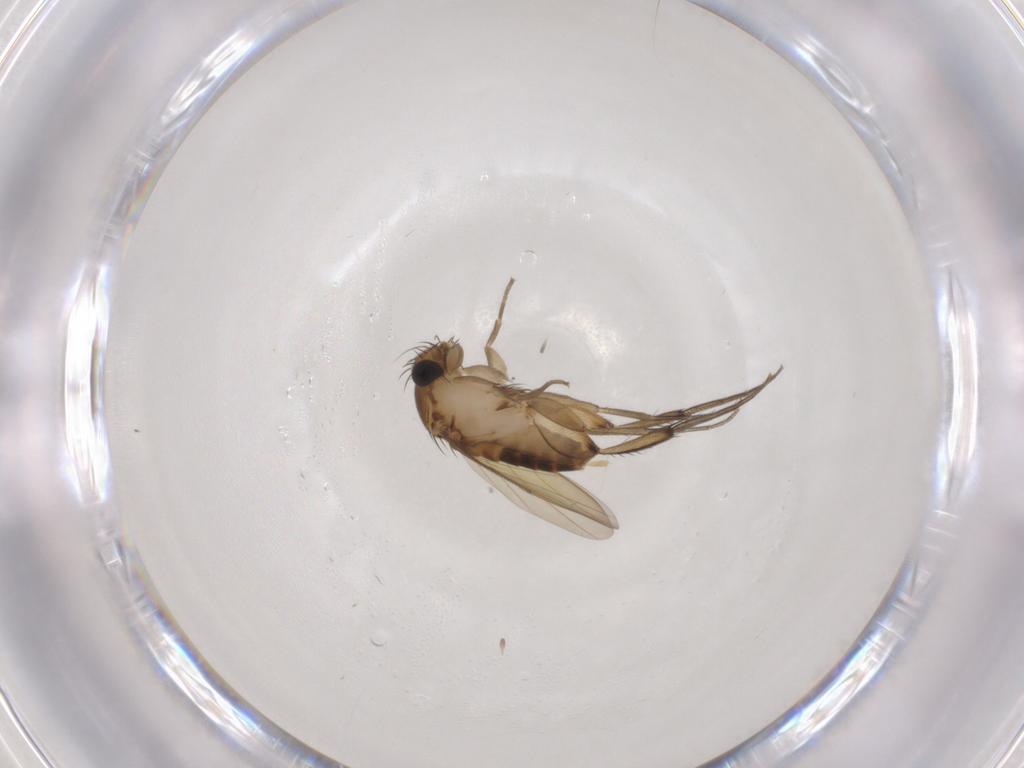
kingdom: Animalia
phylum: Arthropoda
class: Insecta
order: Diptera
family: Phoridae
